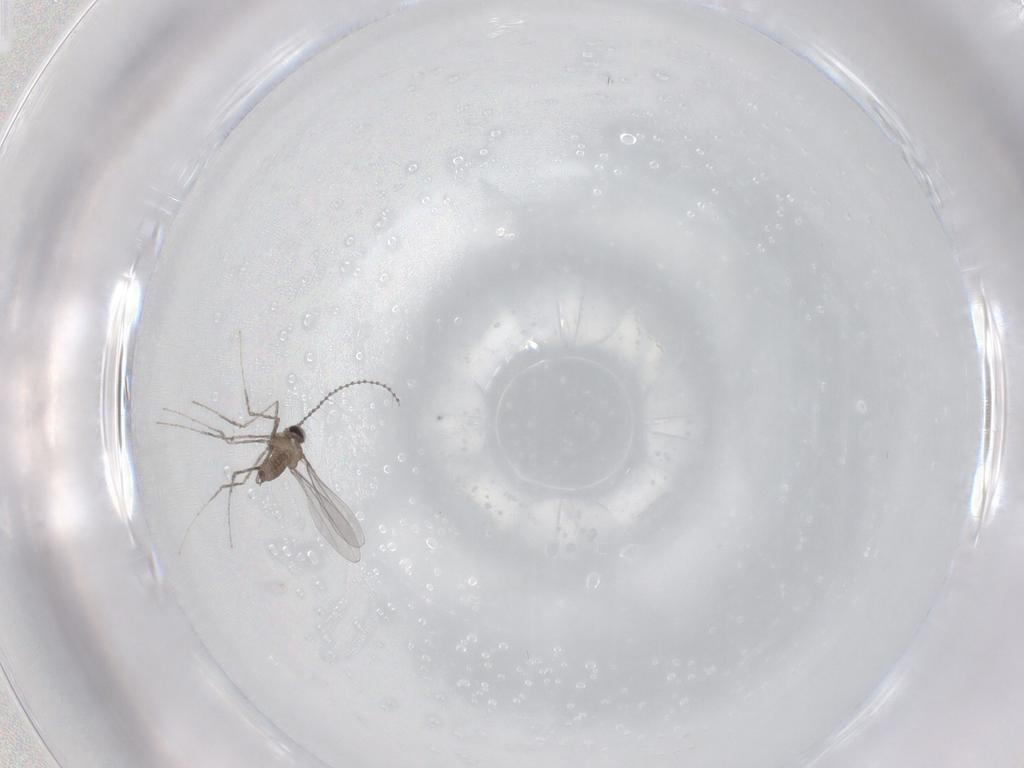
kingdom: Animalia
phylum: Arthropoda
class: Insecta
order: Diptera
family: Cecidomyiidae
